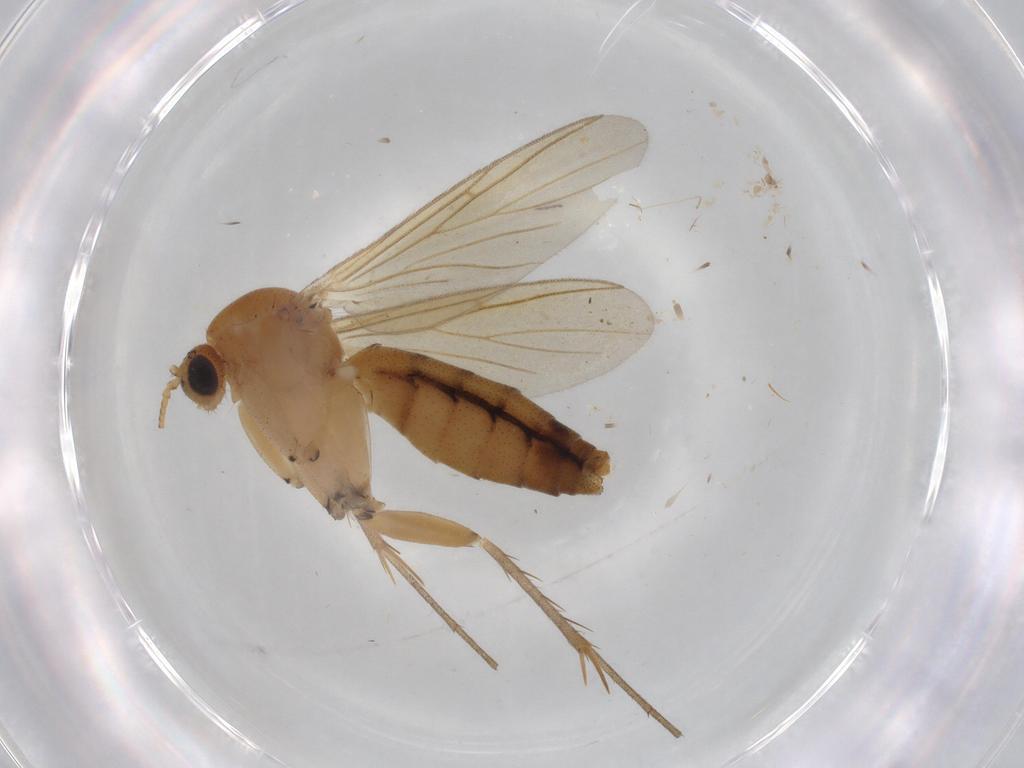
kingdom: Animalia
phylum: Arthropoda
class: Insecta
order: Diptera
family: Mycetophilidae
